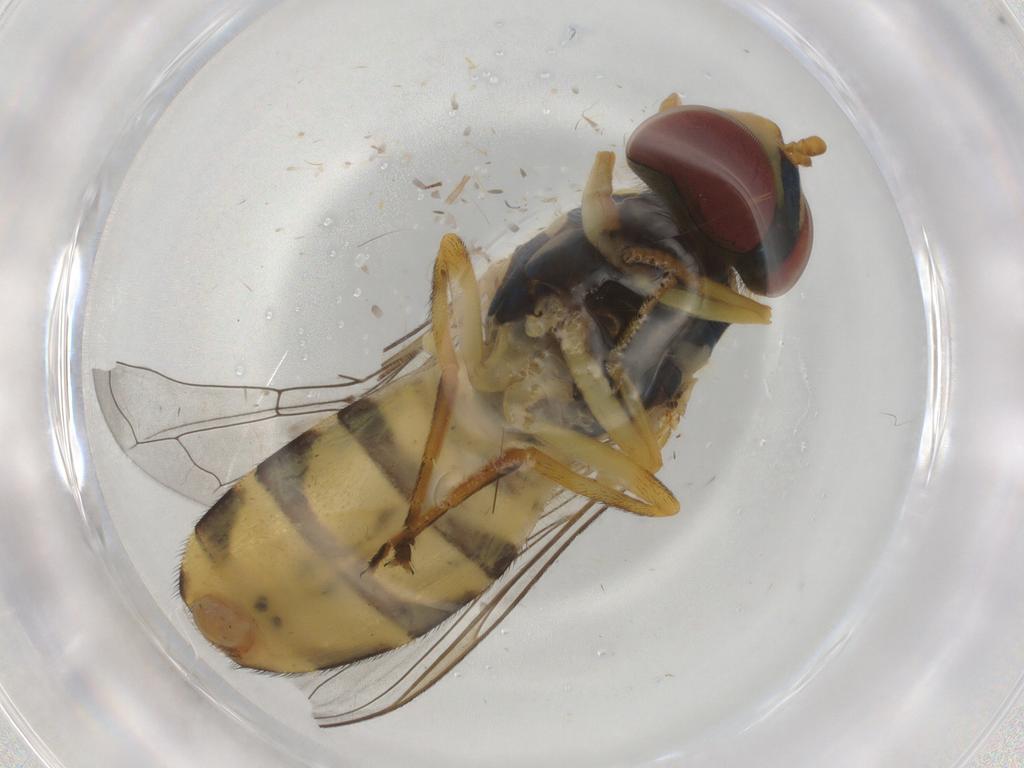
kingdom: Animalia
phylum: Arthropoda
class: Insecta
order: Diptera
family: Syrphidae
